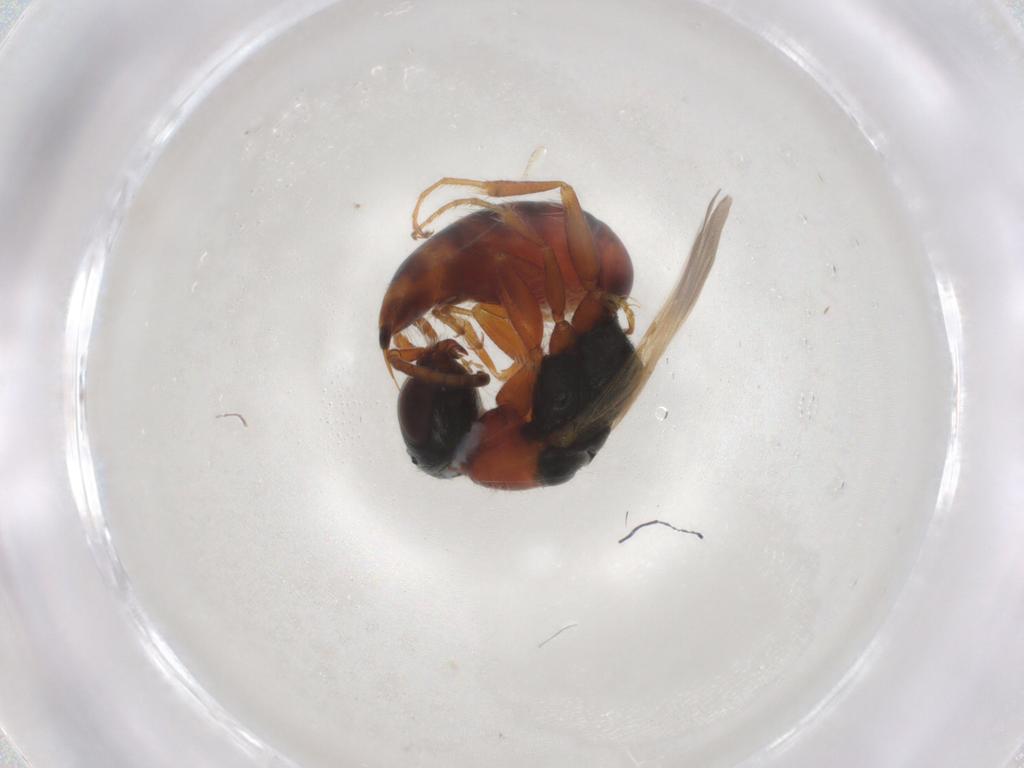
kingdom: Animalia
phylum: Arthropoda
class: Insecta
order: Hymenoptera
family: Bethylidae
